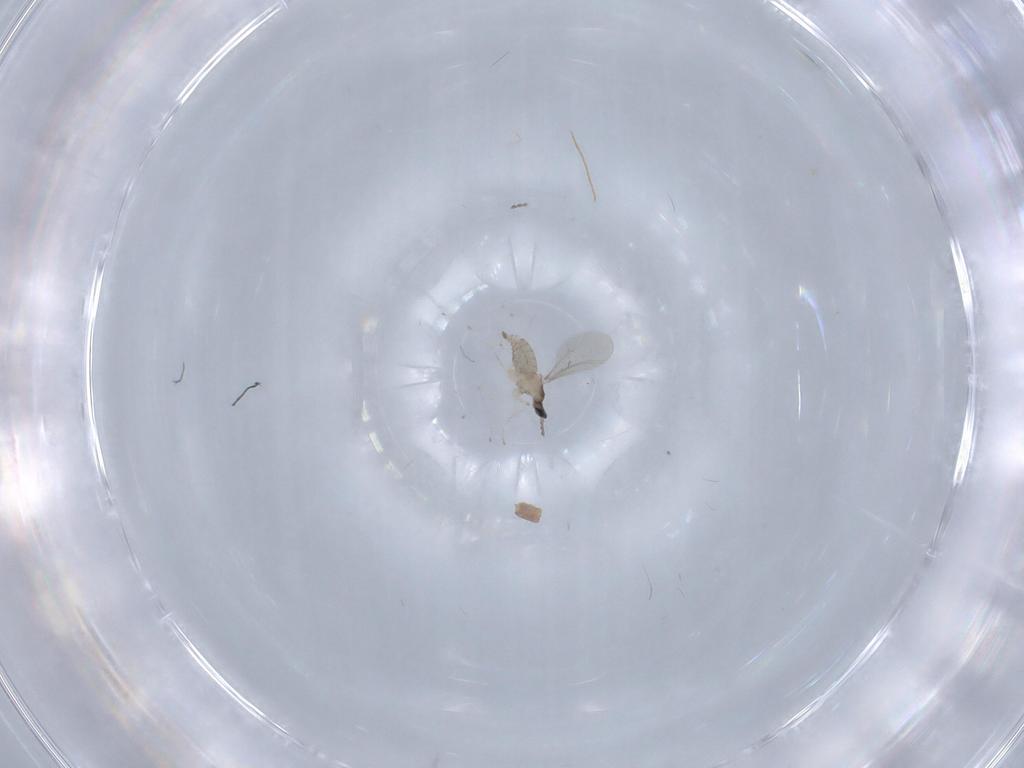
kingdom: Animalia
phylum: Arthropoda
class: Insecta
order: Diptera
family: Cecidomyiidae
